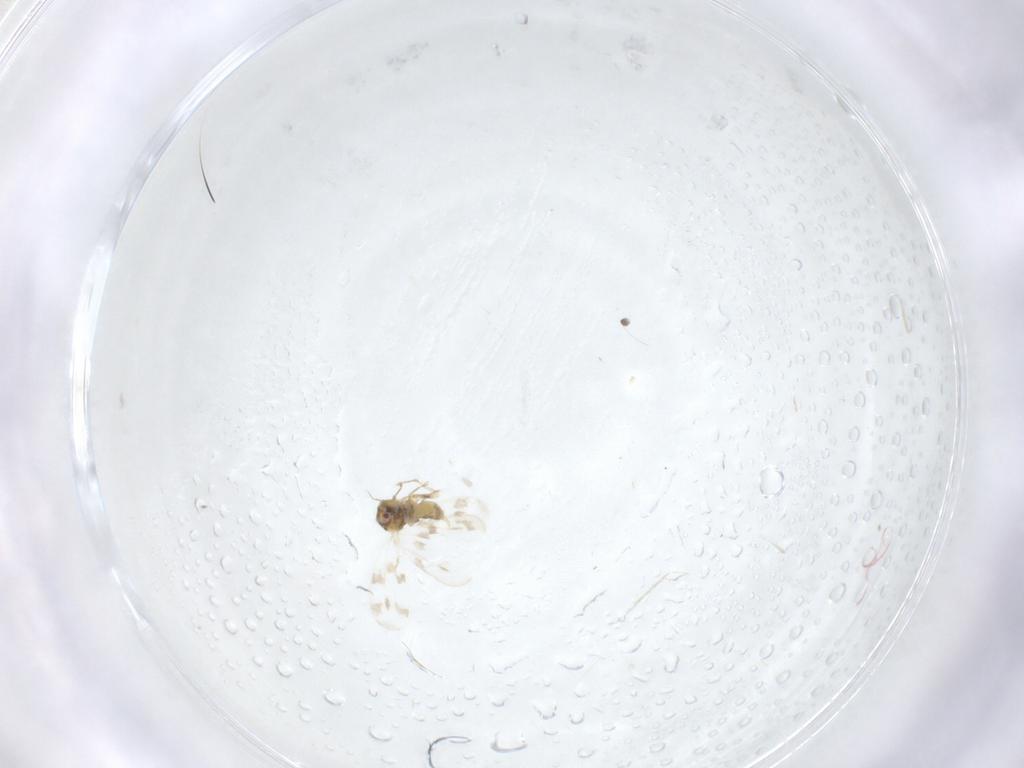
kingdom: Animalia
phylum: Arthropoda
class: Insecta
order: Hemiptera
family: Aleyrodidae
